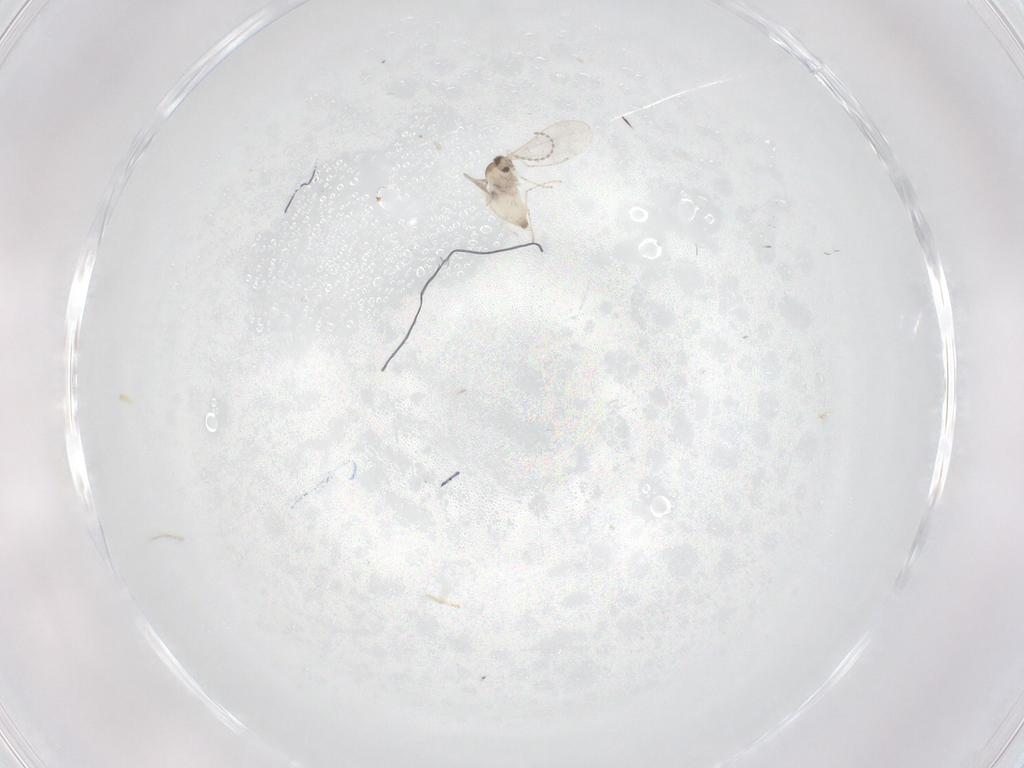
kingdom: Animalia
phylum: Arthropoda
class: Insecta
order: Diptera
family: Cecidomyiidae
